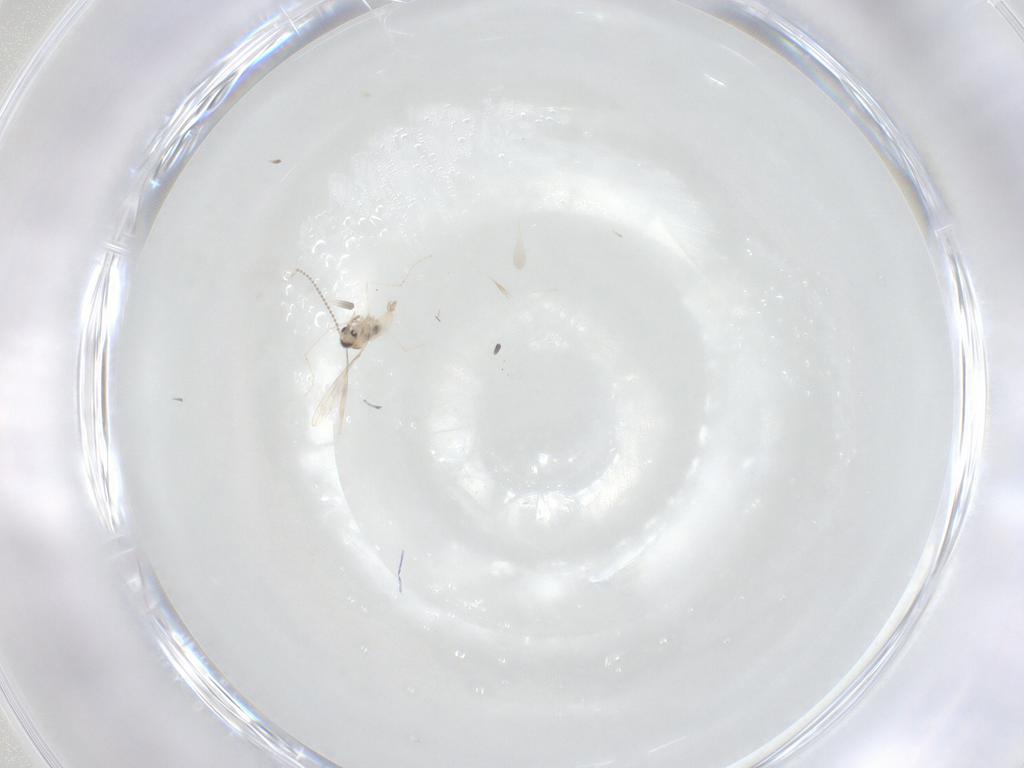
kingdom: Animalia
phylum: Arthropoda
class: Insecta
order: Diptera
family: Cecidomyiidae
